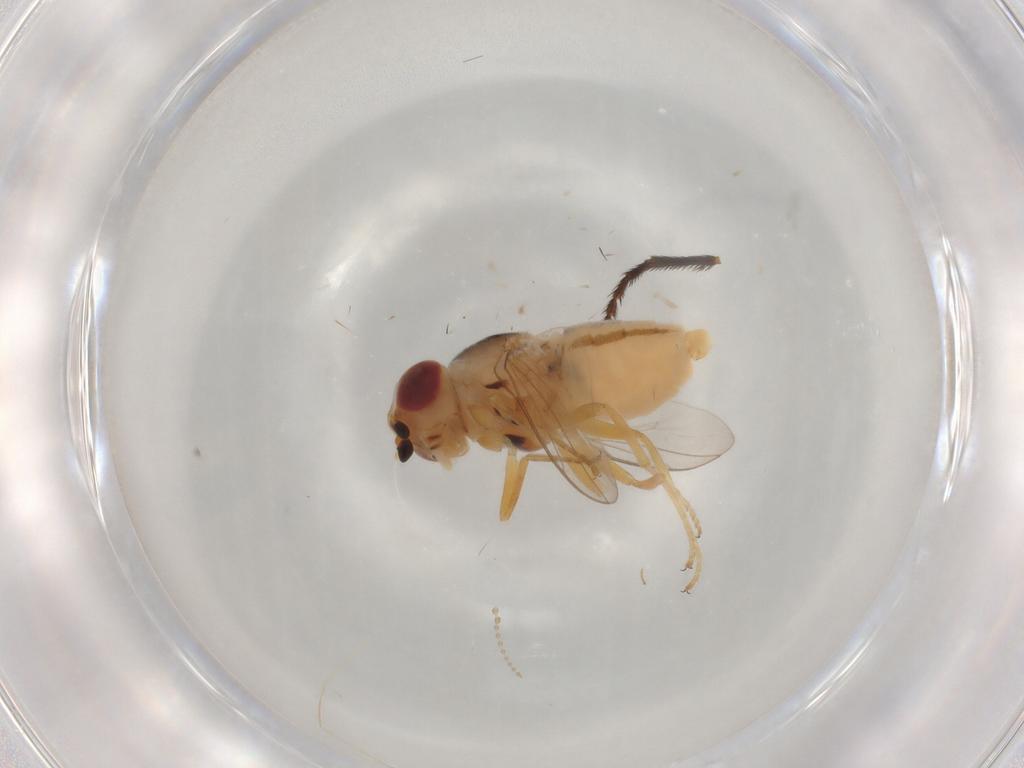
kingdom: Animalia
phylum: Arthropoda
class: Insecta
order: Diptera
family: Chloropidae
